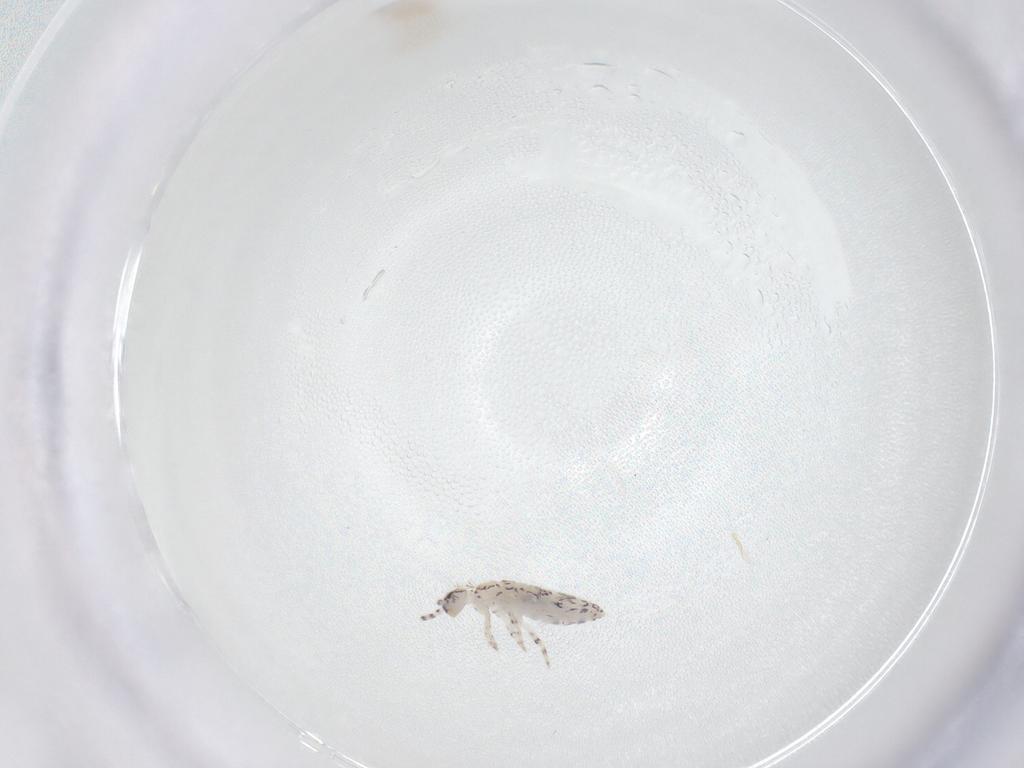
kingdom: Animalia
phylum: Arthropoda
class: Collembola
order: Entomobryomorpha
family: Entomobryidae
